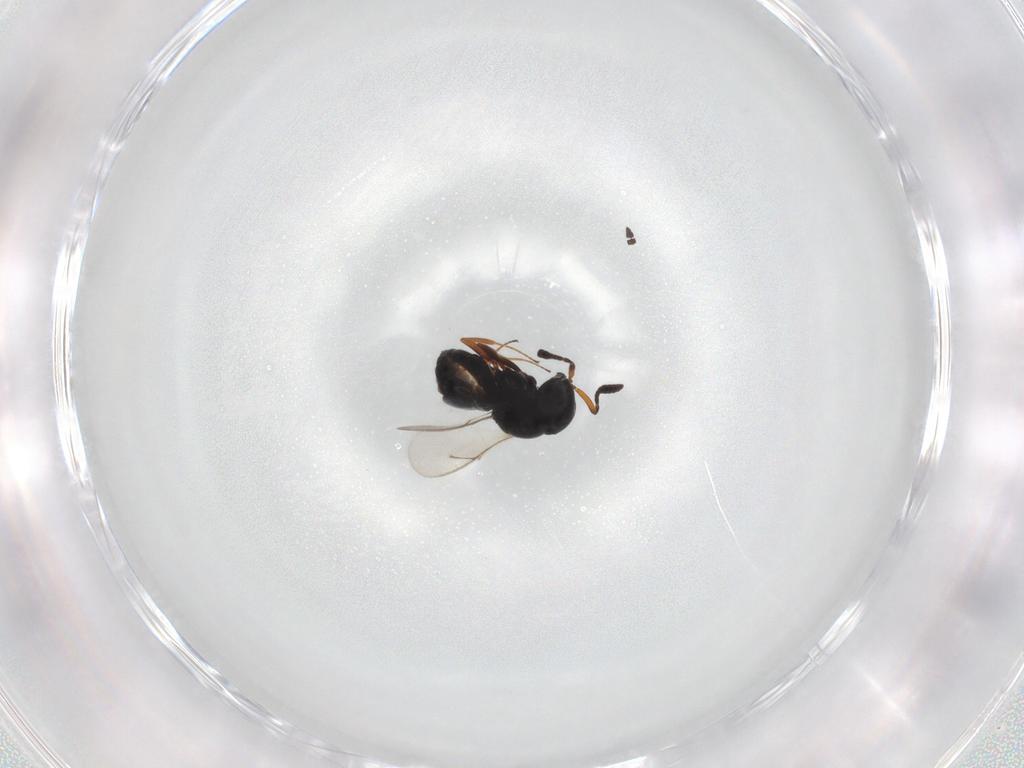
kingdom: Animalia
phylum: Arthropoda
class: Insecta
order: Hymenoptera
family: Scelionidae
